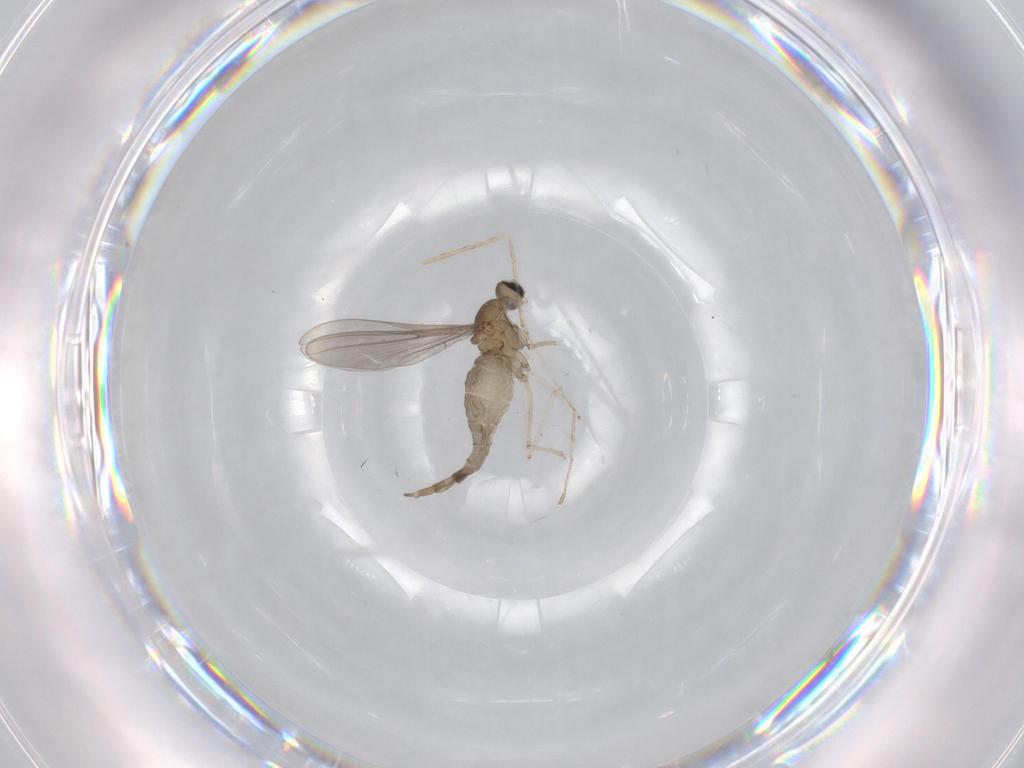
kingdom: Animalia
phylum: Arthropoda
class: Insecta
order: Diptera
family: Cecidomyiidae
